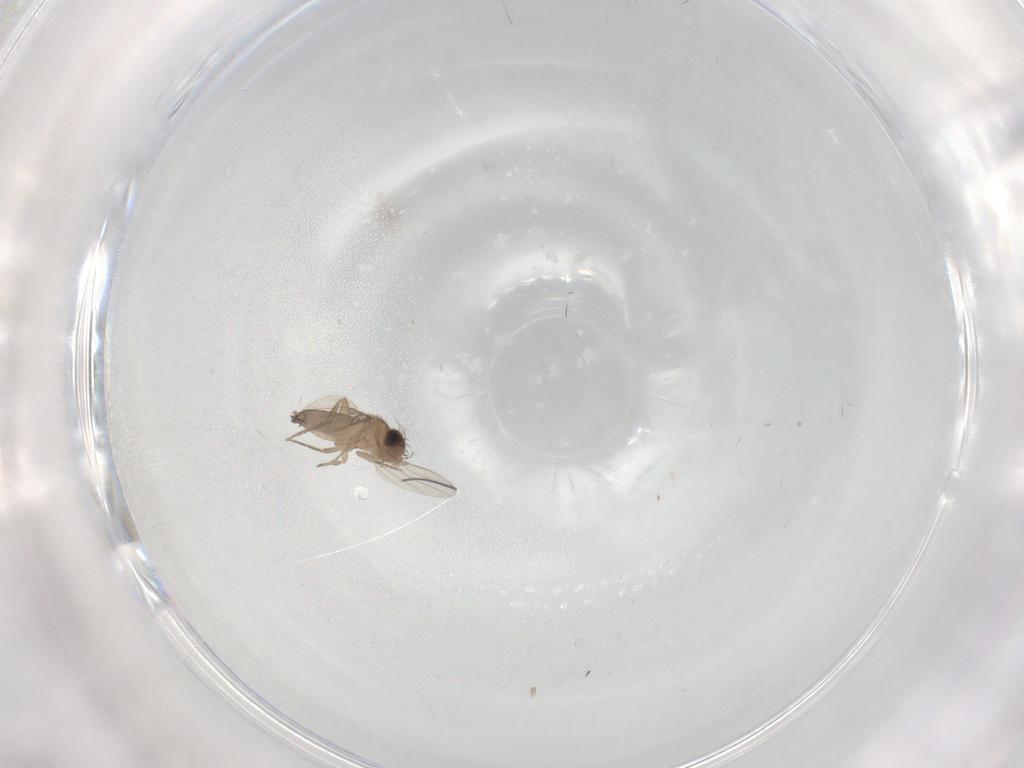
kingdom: Animalia
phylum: Arthropoda
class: Insecta
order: Diptera
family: Phoridae
